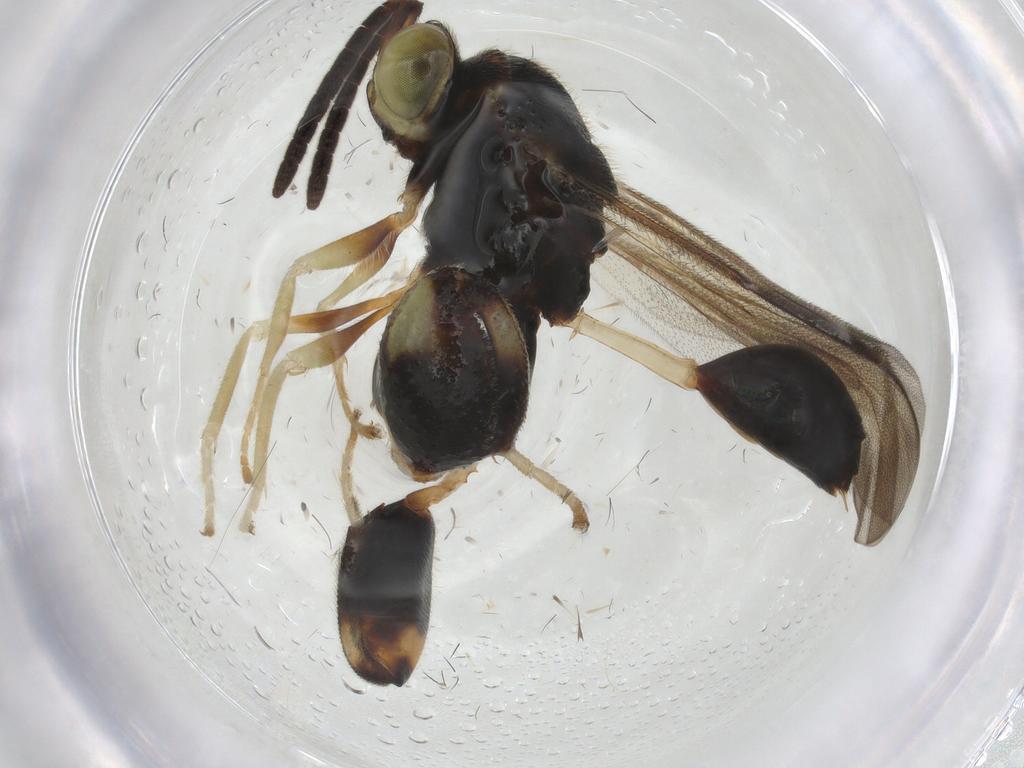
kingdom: Animalia
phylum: Arthropoda
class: Insecta
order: Hymenoptera
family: Chalcididae
